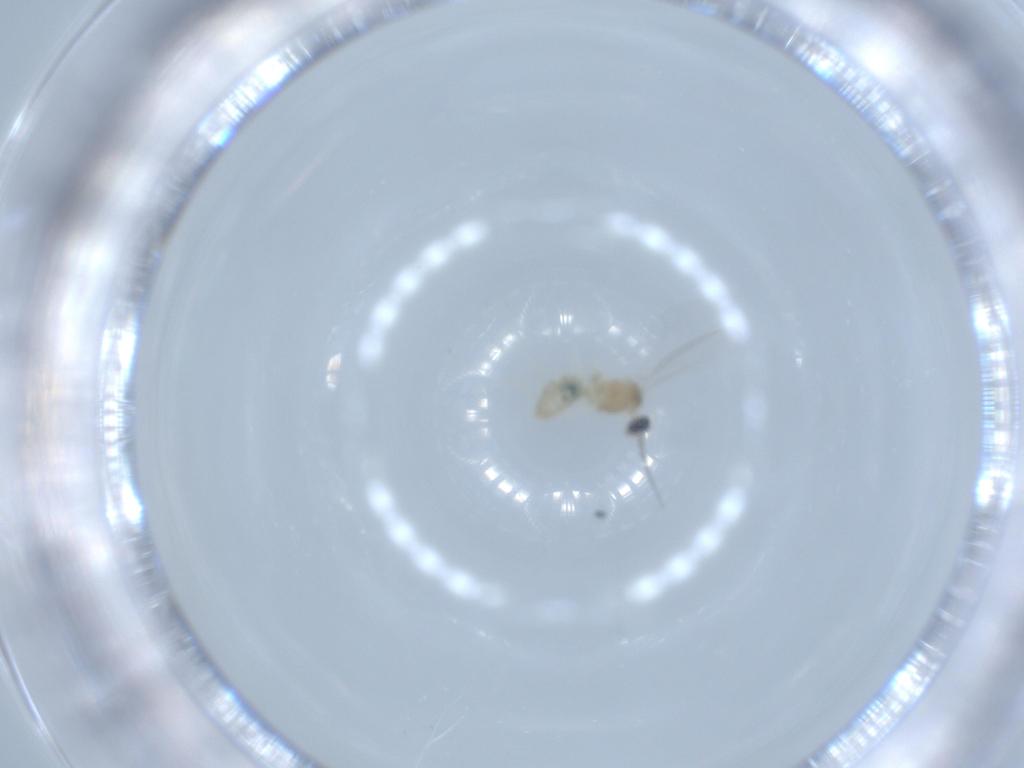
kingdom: Animalia
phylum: Arthropoda
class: Insecta
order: Diptera
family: Cecidomyiidae
